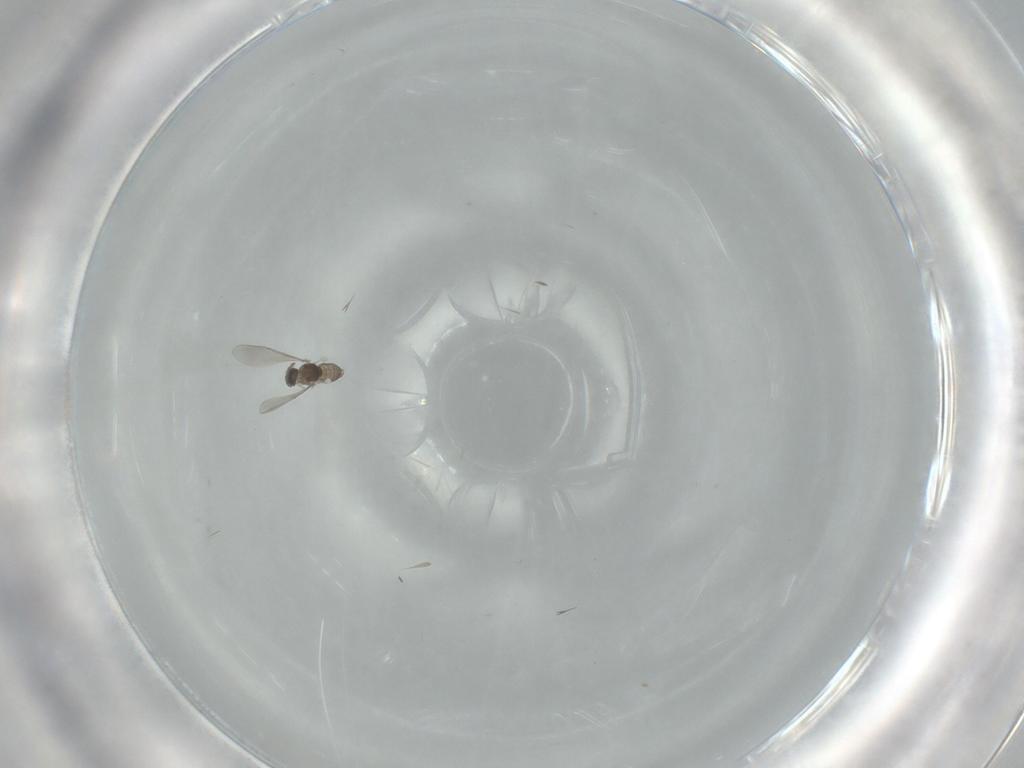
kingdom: Animalia
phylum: Arthropoda
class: Insecta
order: Diptera
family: Cecidomyiidae
